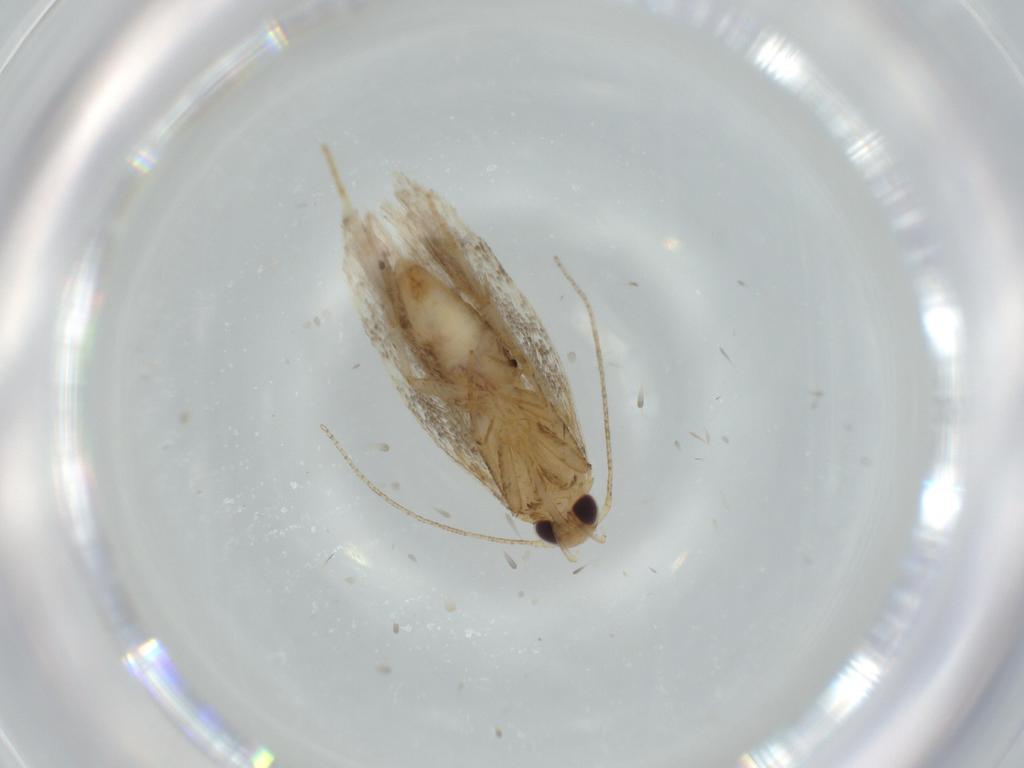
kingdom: Animalia
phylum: Arthropoda
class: Insecta
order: Lepidoptera
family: Coleophoridae
